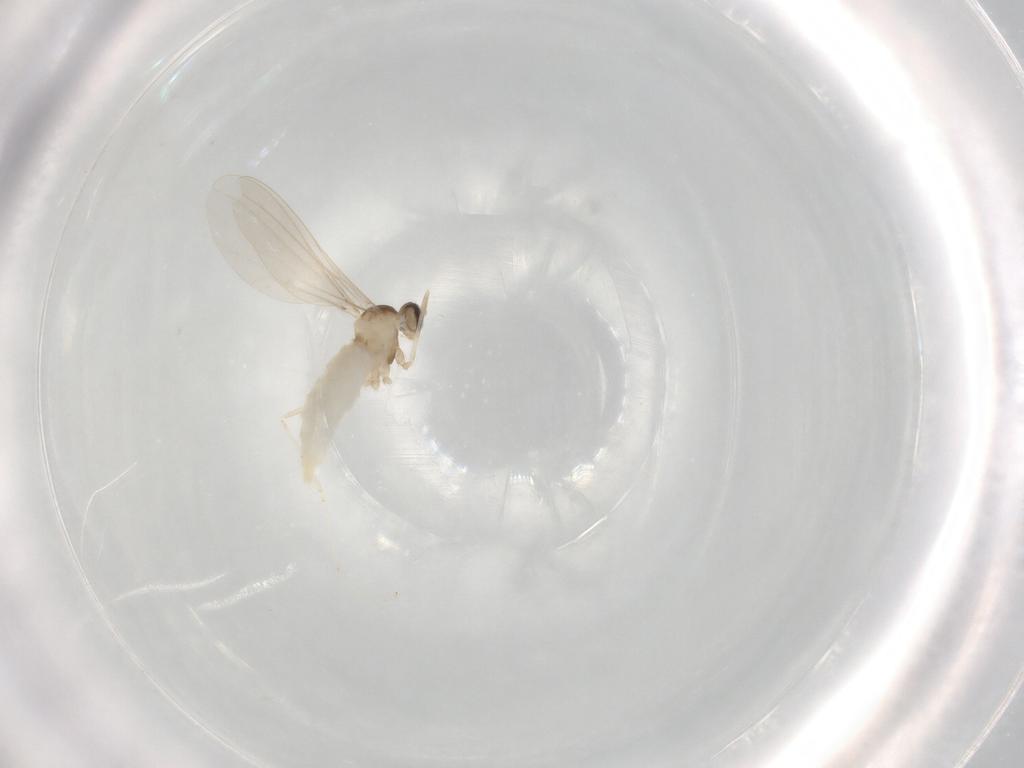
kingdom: Animalia
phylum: Arthropoda
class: Insecta
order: Diptera
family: Cecidomyiidae
